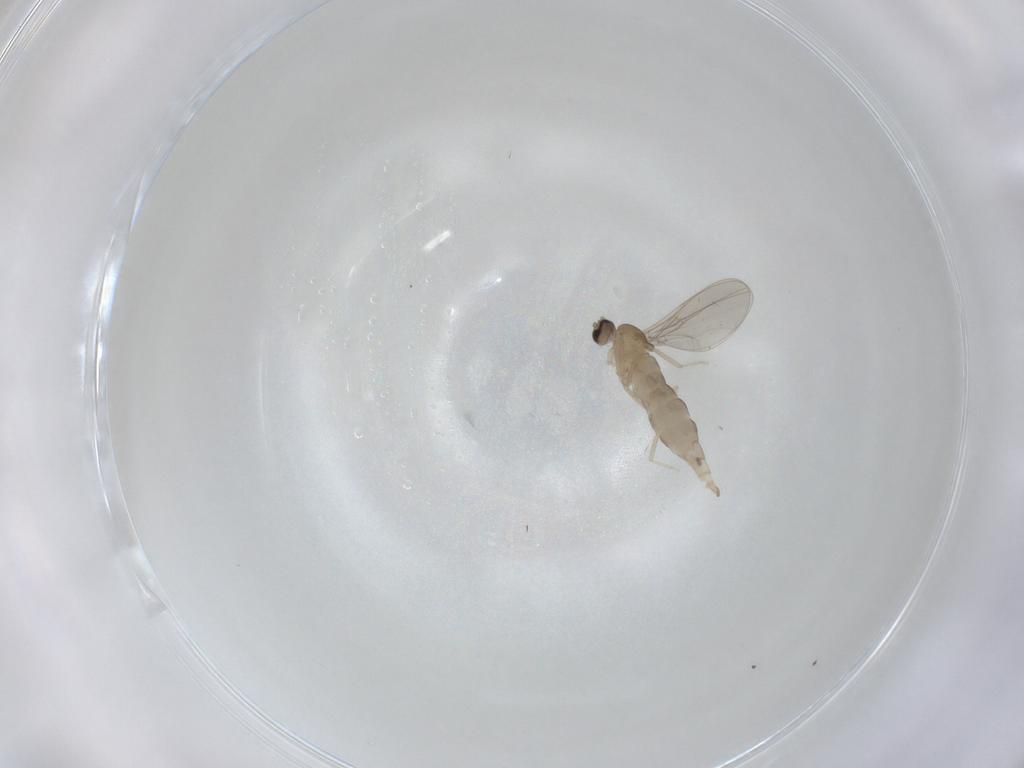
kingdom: Animalia
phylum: Arthropoda
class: Insecta
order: Diptera
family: Cecidomyiidae
